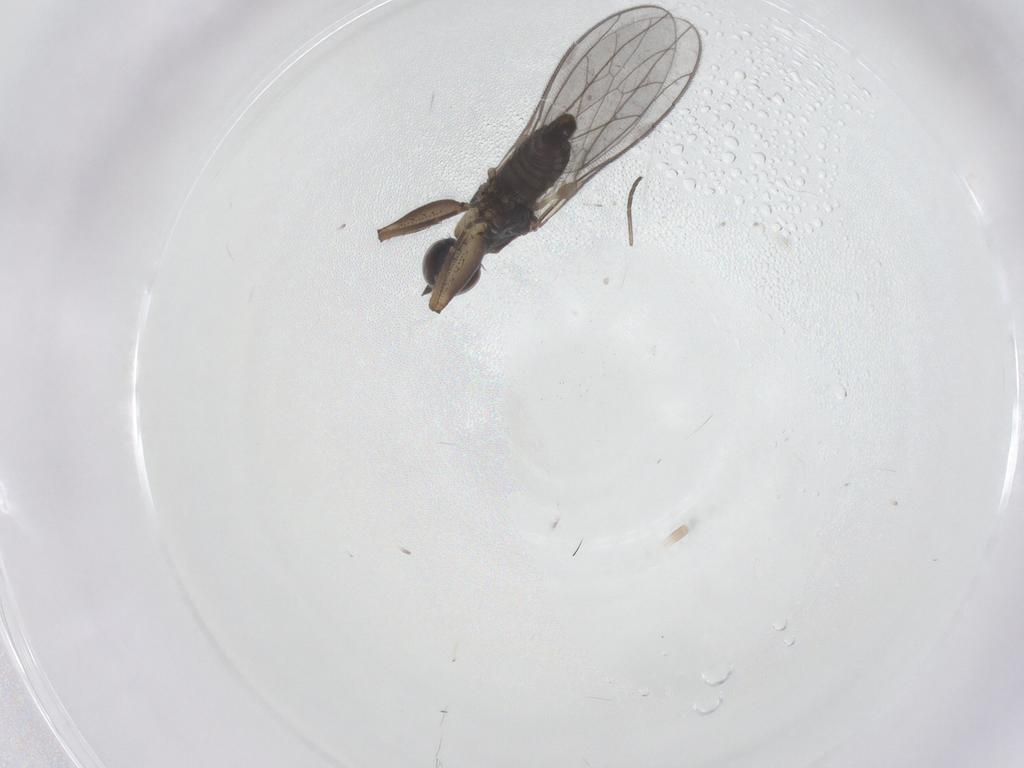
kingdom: Animalia
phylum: Arthropoda
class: Insecta
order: Diptera
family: Empididae
